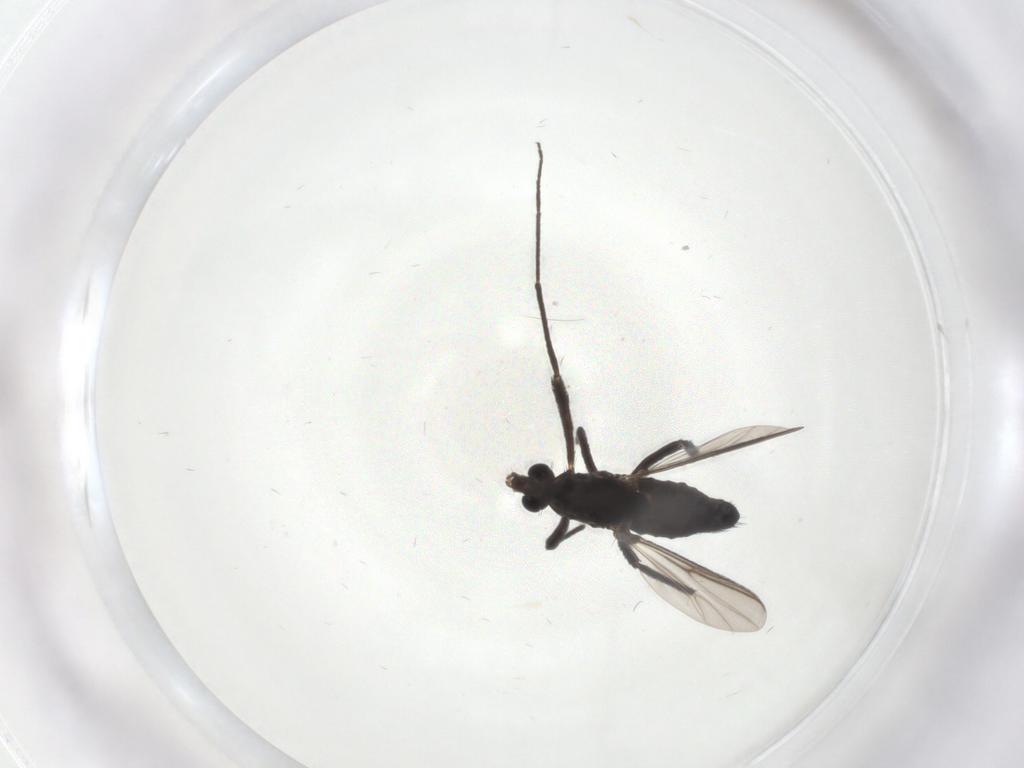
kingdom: Animalia
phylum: Arthropoda
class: Insecta
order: Diptera
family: Chironomidae
